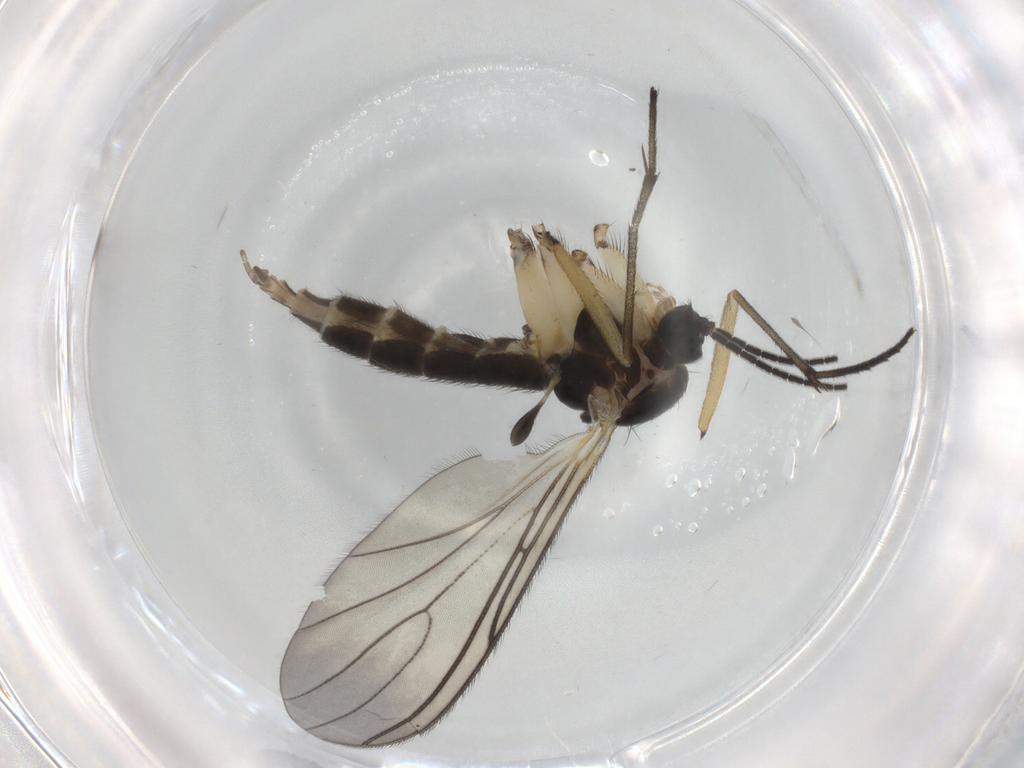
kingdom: Animalia
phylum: Arthropoda
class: Insecta
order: Diptera
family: Sciaridae
